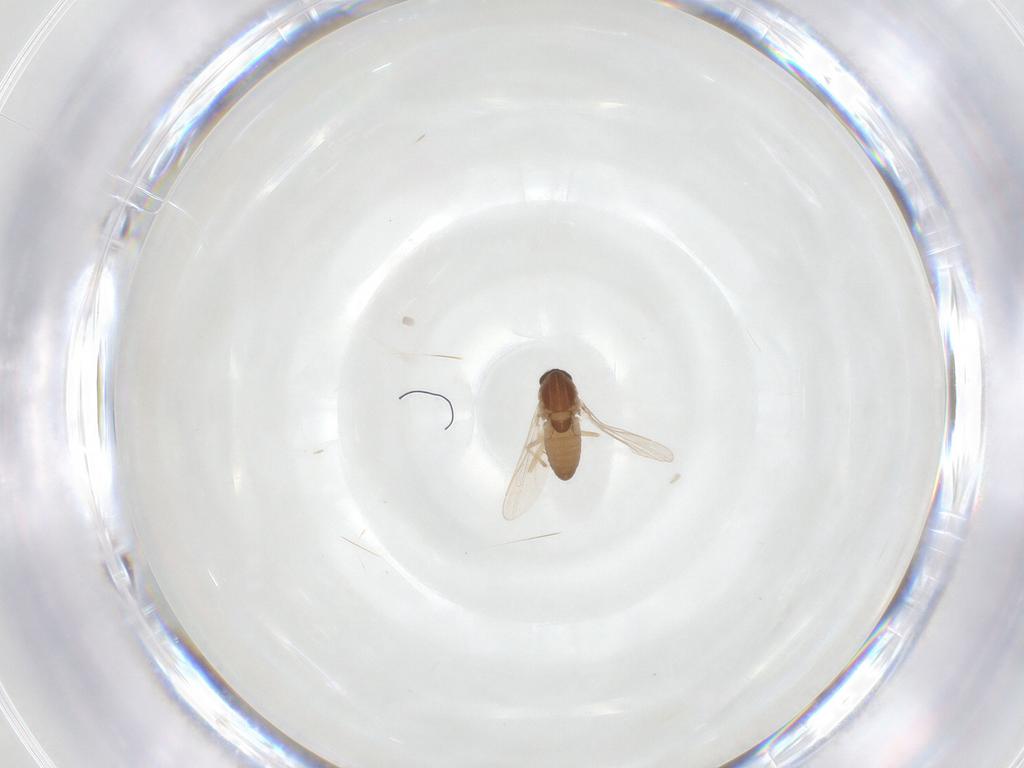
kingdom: Animalia
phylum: Arthropoda
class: Insecta
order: Diptera
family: Chironomidae
